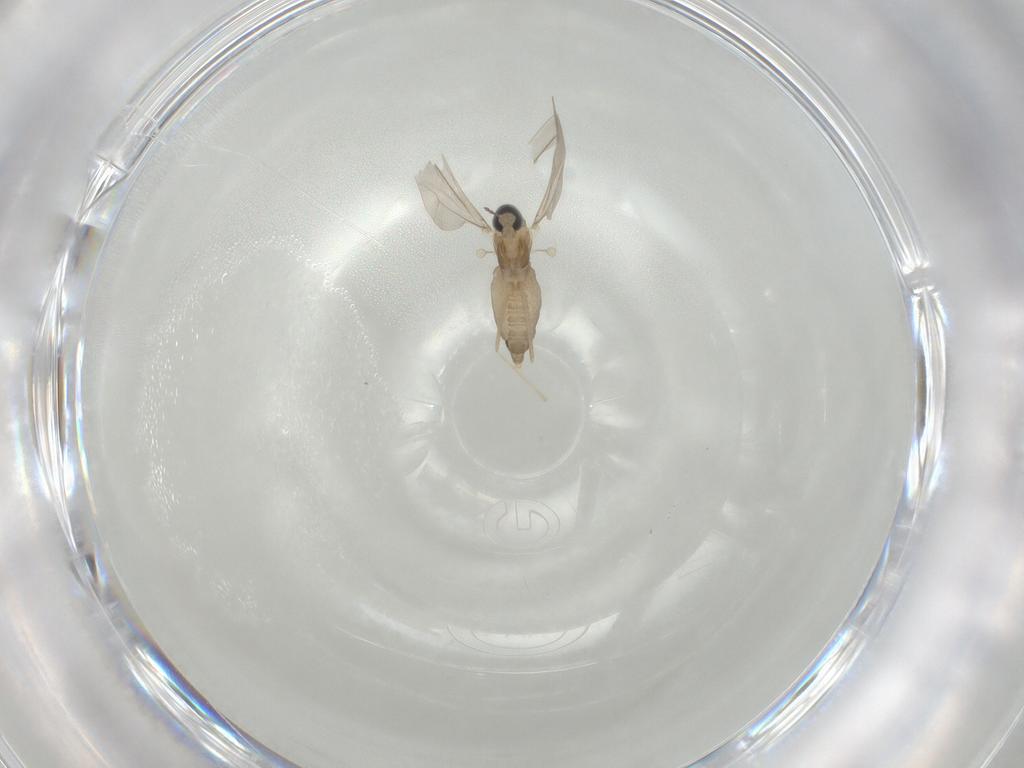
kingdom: Animalia
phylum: Arthropoda
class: Insecta
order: Diptera
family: Cecidomyiidae
